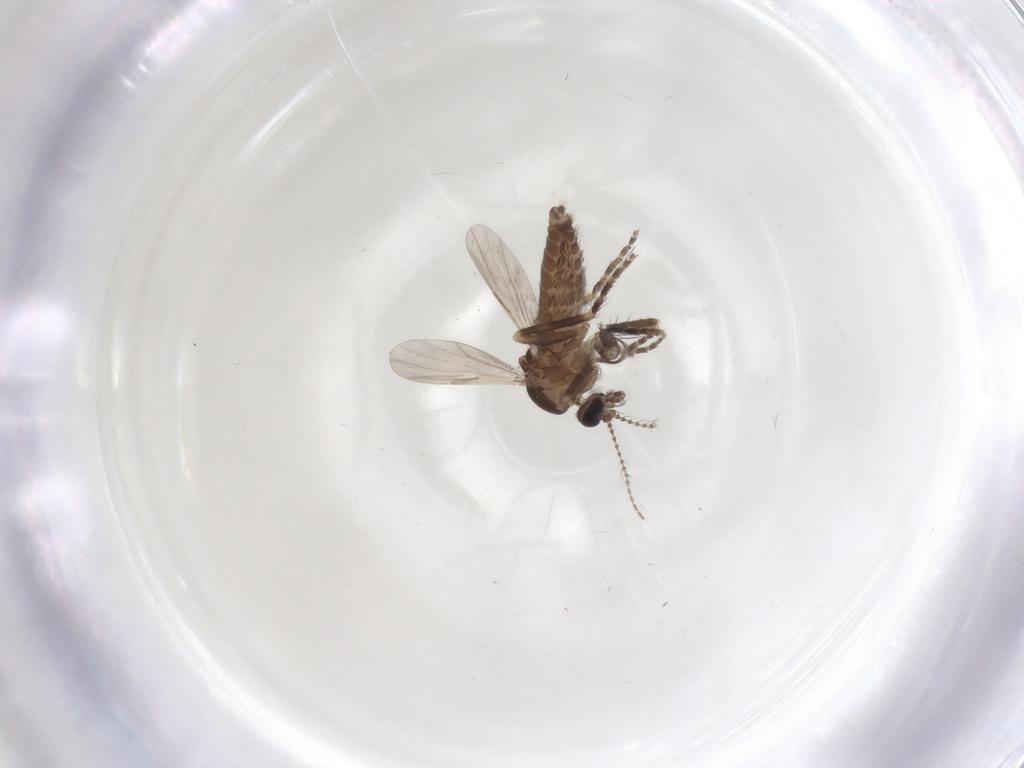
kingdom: Animalia
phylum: Arthropoda
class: Insecta
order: Diptera
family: Ceratopogonidae
